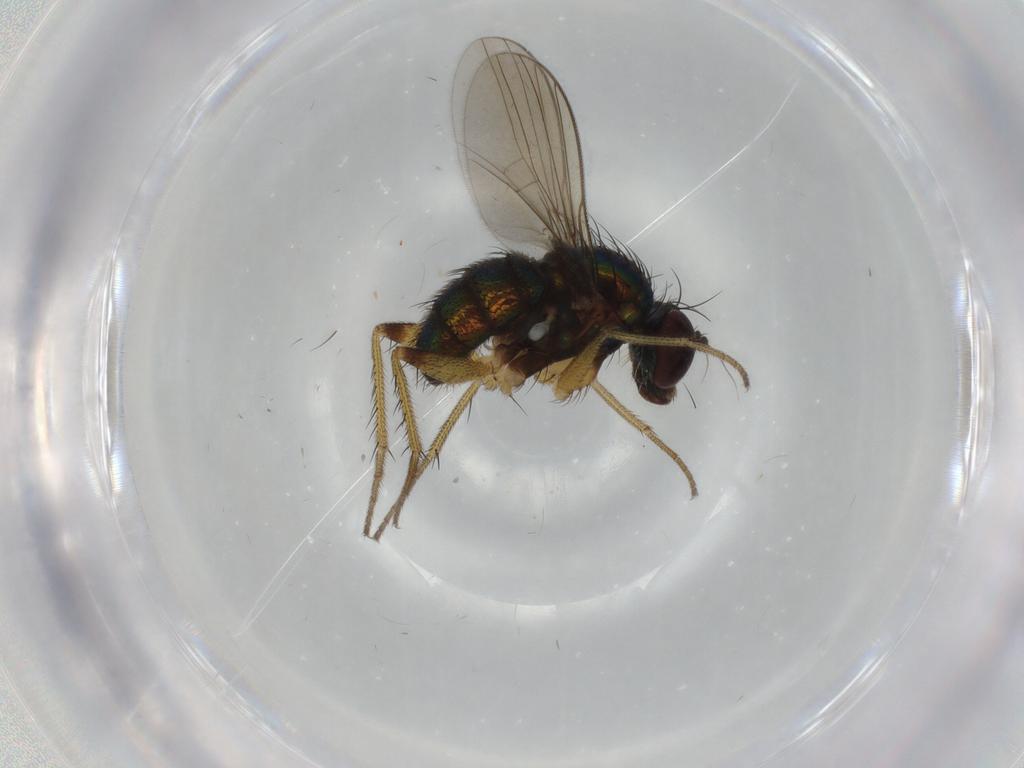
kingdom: Animalia
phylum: Arthropoda
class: Insecta
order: Diptera
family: Dolichopodidae
